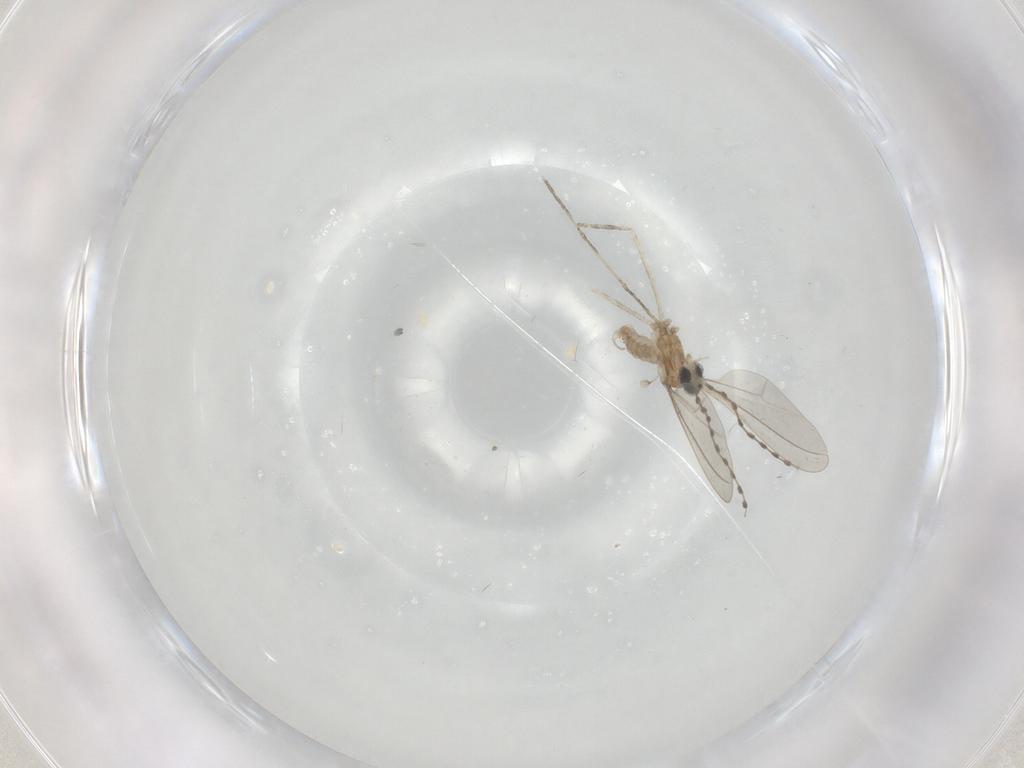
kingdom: Animalia
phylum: Arthropoda
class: Insecta
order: Diptera
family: Cecidomyiidae
